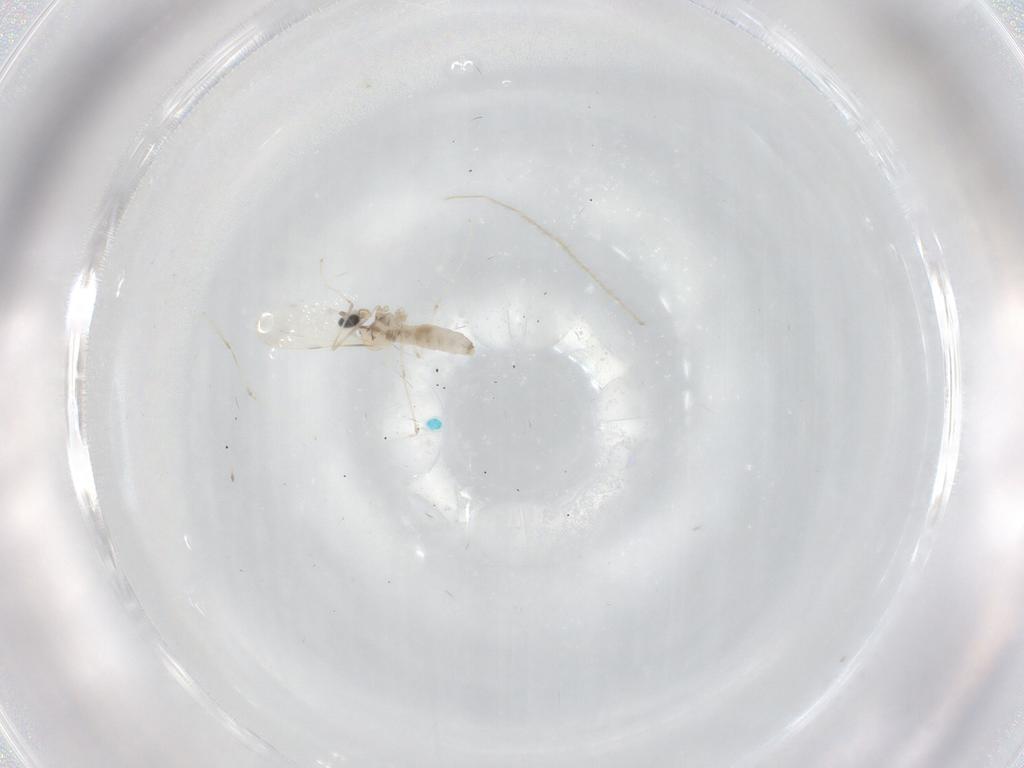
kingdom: Animalia
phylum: Arthropoda
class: Insecta
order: Diptera
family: Cecidomyiidae
